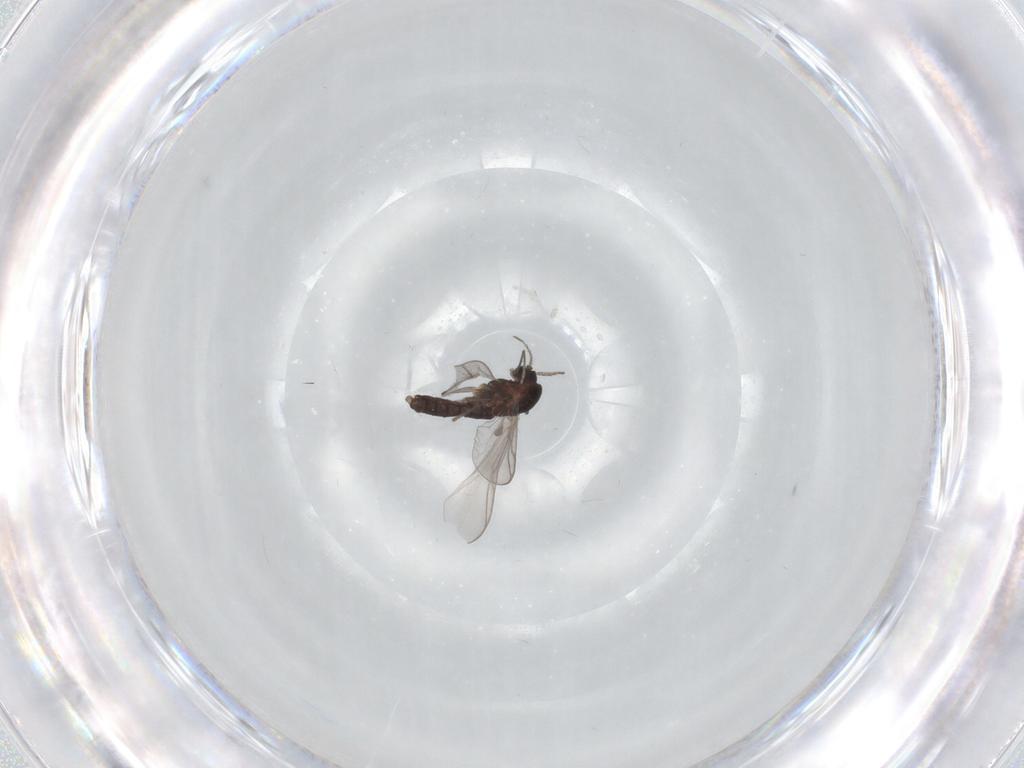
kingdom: Animalia
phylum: Arthropoda
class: Insecta
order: Diptera
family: Chironomidae
